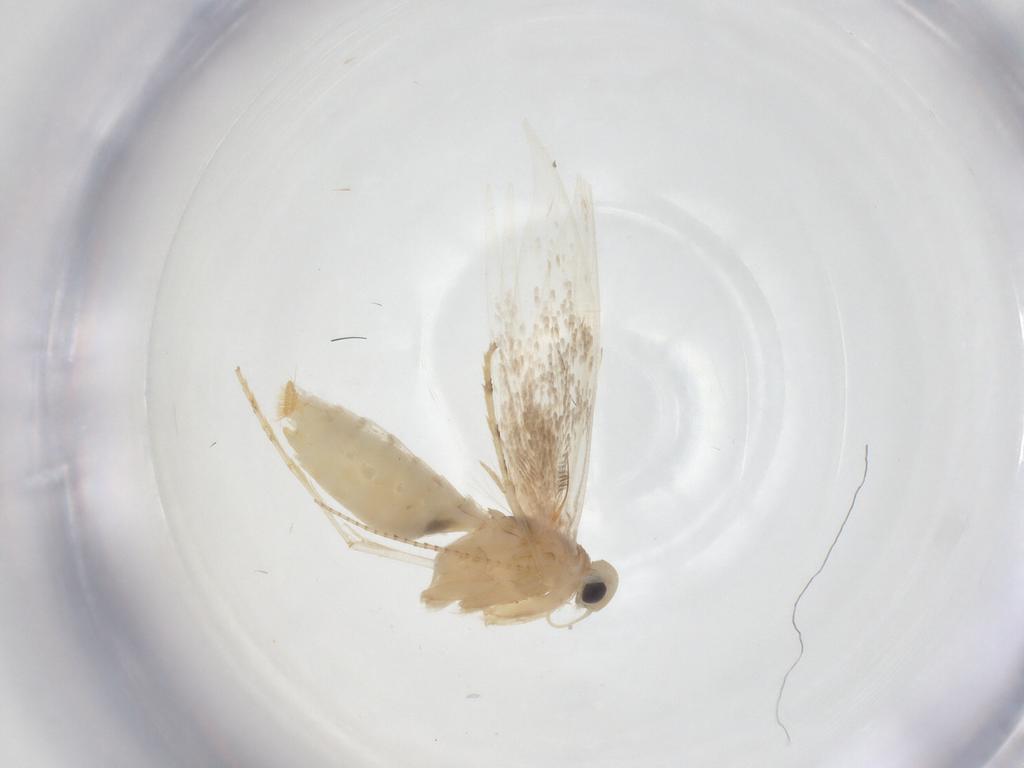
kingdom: Animalia
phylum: Arthropoda
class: Insecta
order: Lepidoptera
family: Gracillariidae
